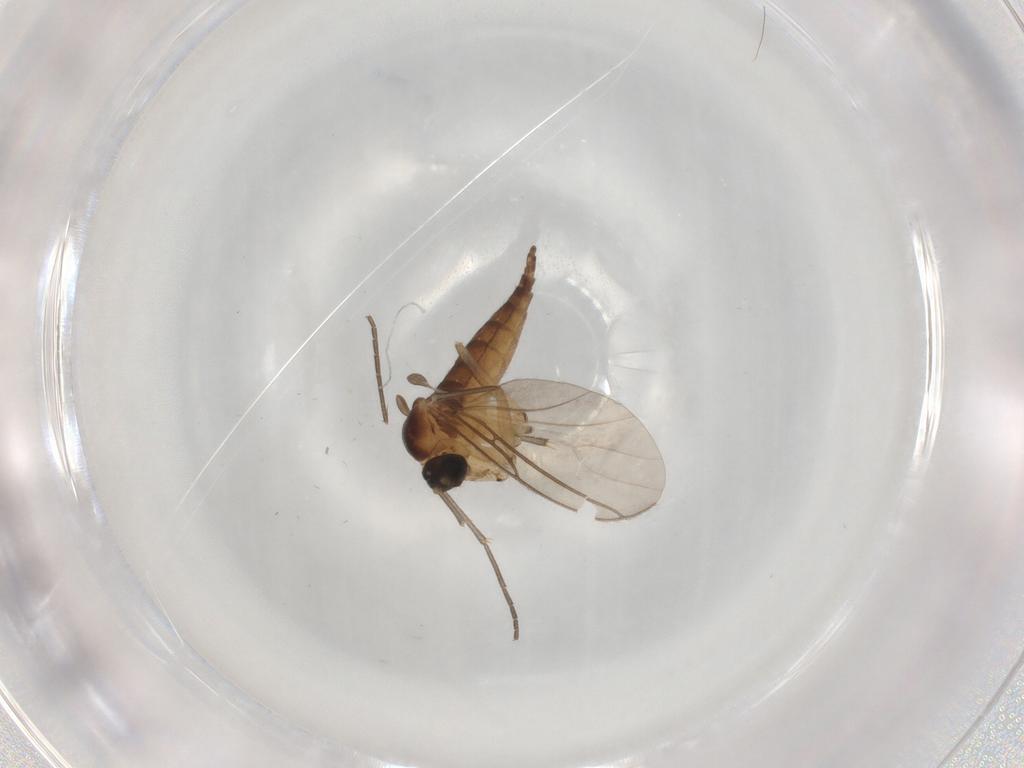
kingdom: Animalia
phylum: Arthropoda
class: Insecta
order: Diptera
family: Sciaridae
